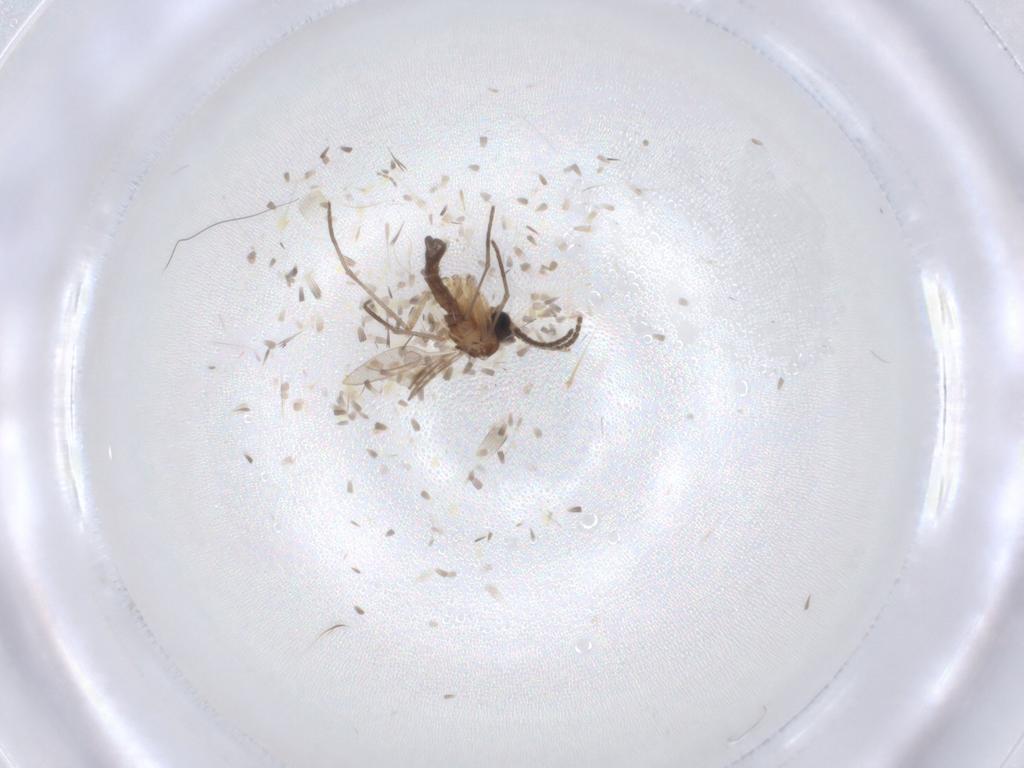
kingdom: Animalia
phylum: Arthropoda
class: Insecta
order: Diptera
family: Sciaridae
